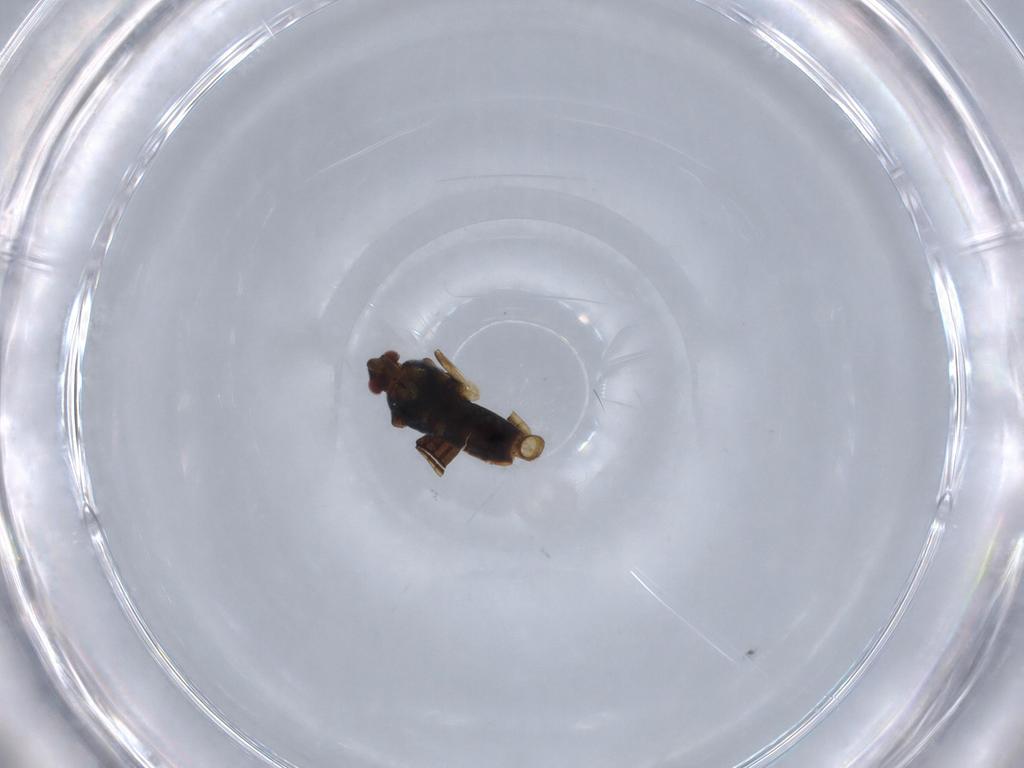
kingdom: Animalia
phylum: Arthropoda
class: Insecta
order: Hemiptera
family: Veliidae
